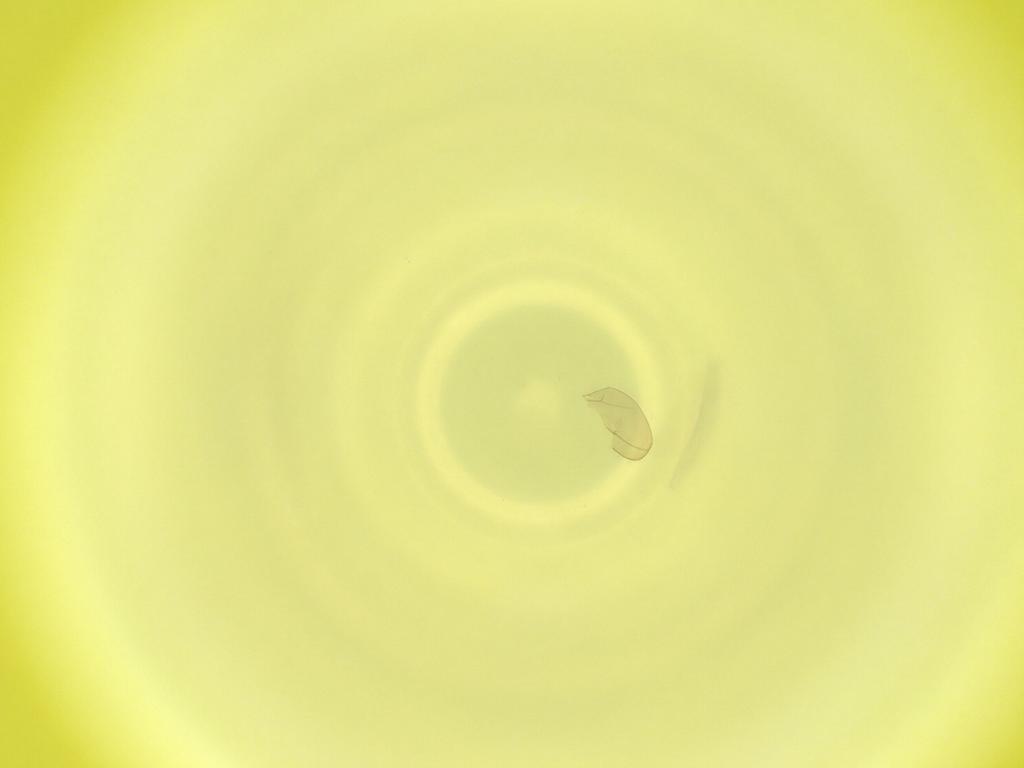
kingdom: Animalia
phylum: Arthropoda
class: Insecta
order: Diptera
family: Cecidomyiidae
